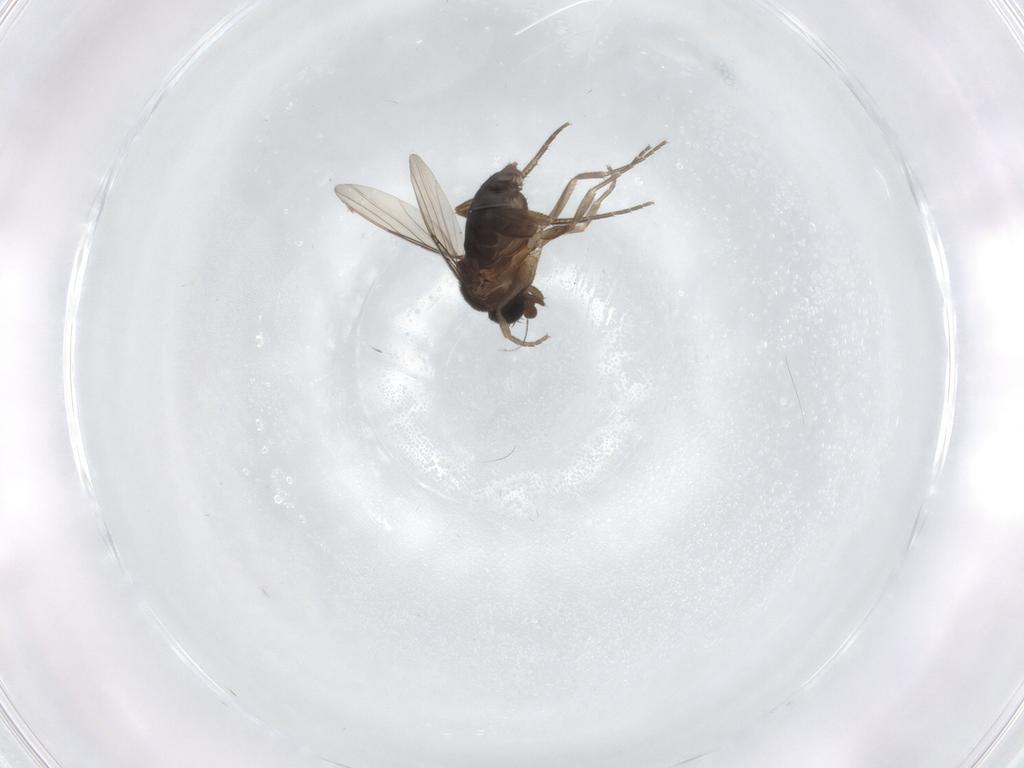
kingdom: Animalia
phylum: Arthropoda
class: Insecta
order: Diptera
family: Phoridae
